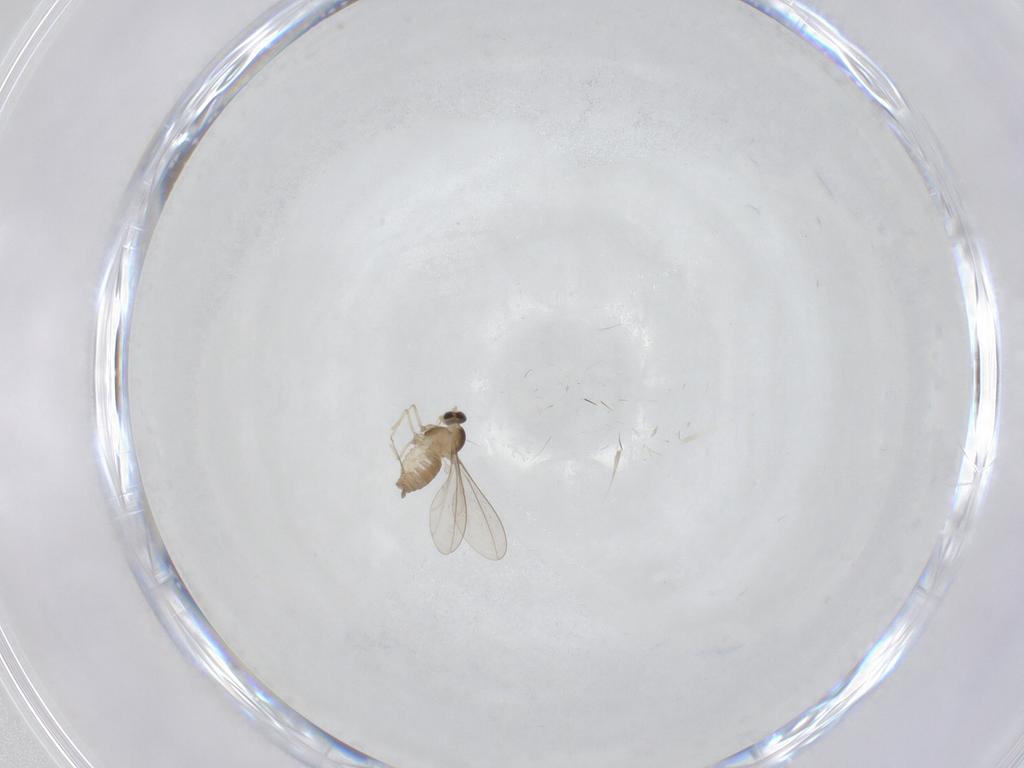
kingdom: Animalia
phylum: Arthropoda
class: Insecta
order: Diptera
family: Cecidomyiidae
